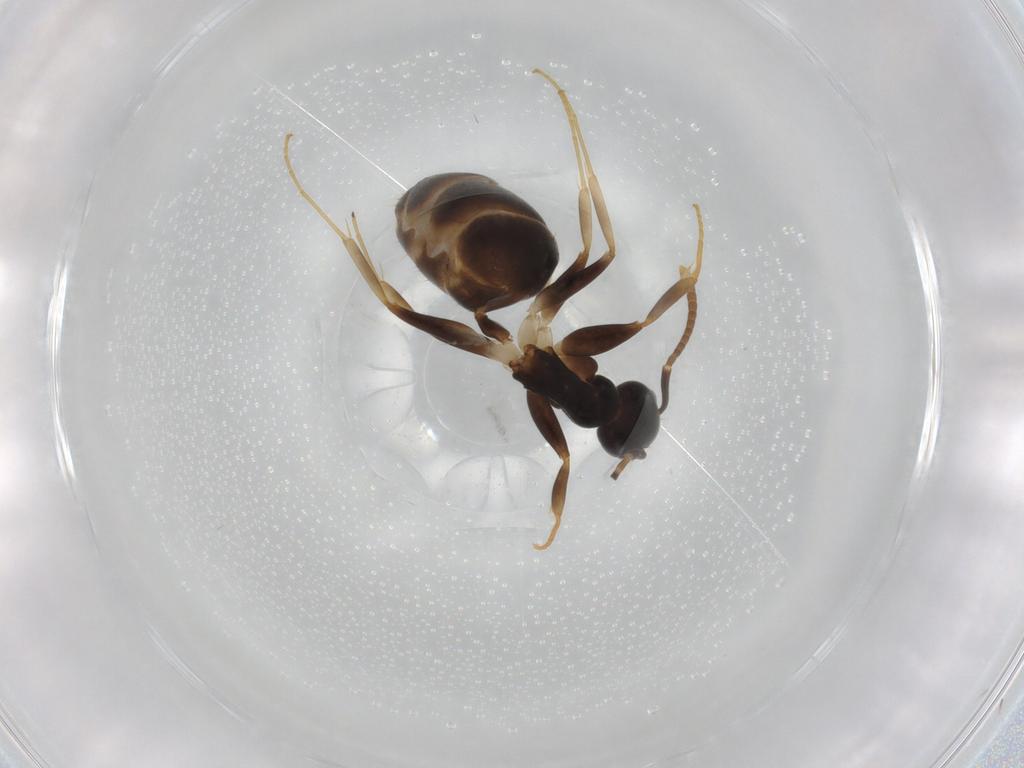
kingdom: Animalia
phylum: Arthropoda
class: Insecta
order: Hymenoptera
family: Formicidae
